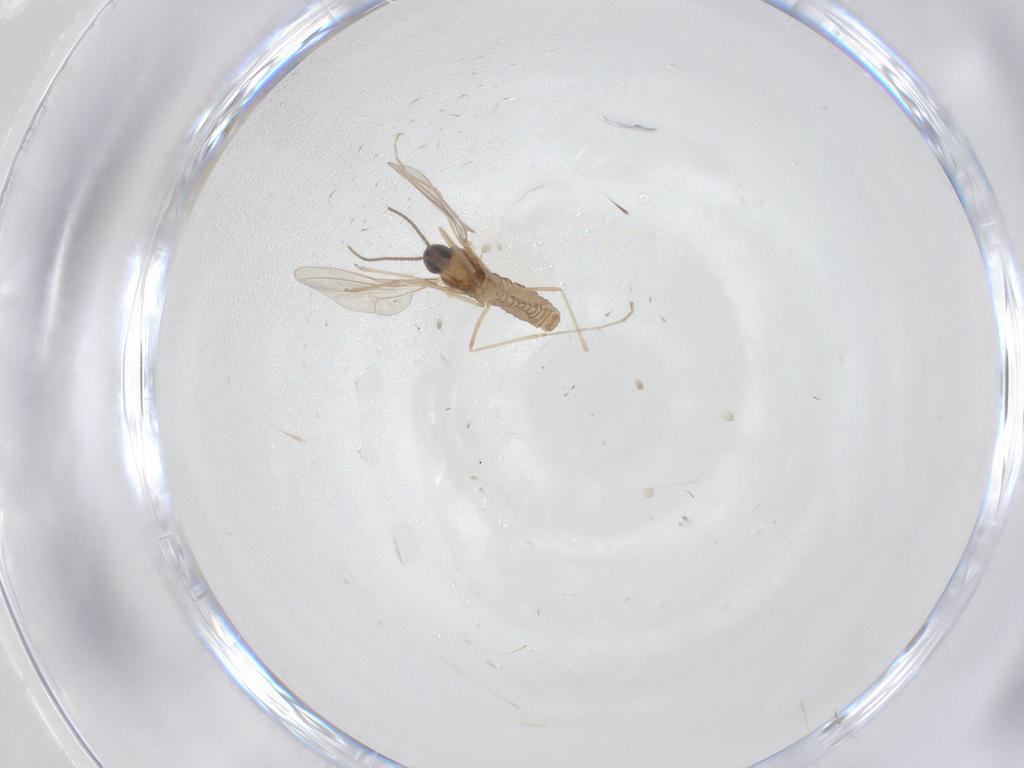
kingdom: Animalia
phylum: Arthropoda
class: Insecta
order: Diptera
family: Cecidomyiidae
